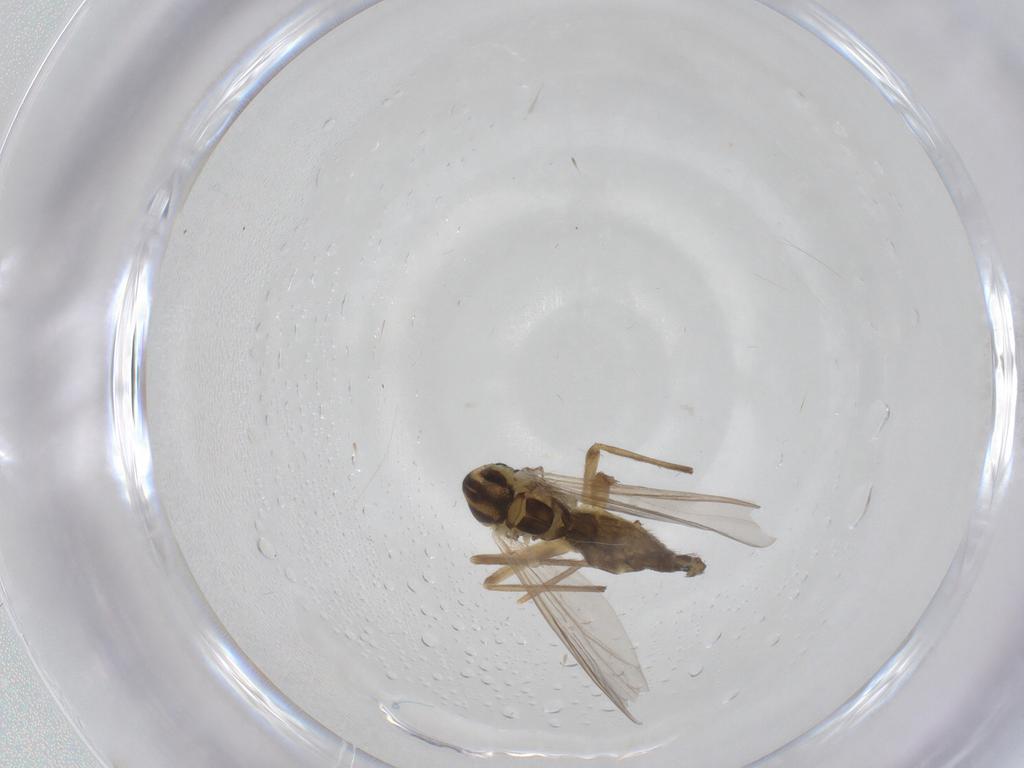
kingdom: Animalia
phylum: Arthropoda
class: Insecta
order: Diptera
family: Chironomidae
